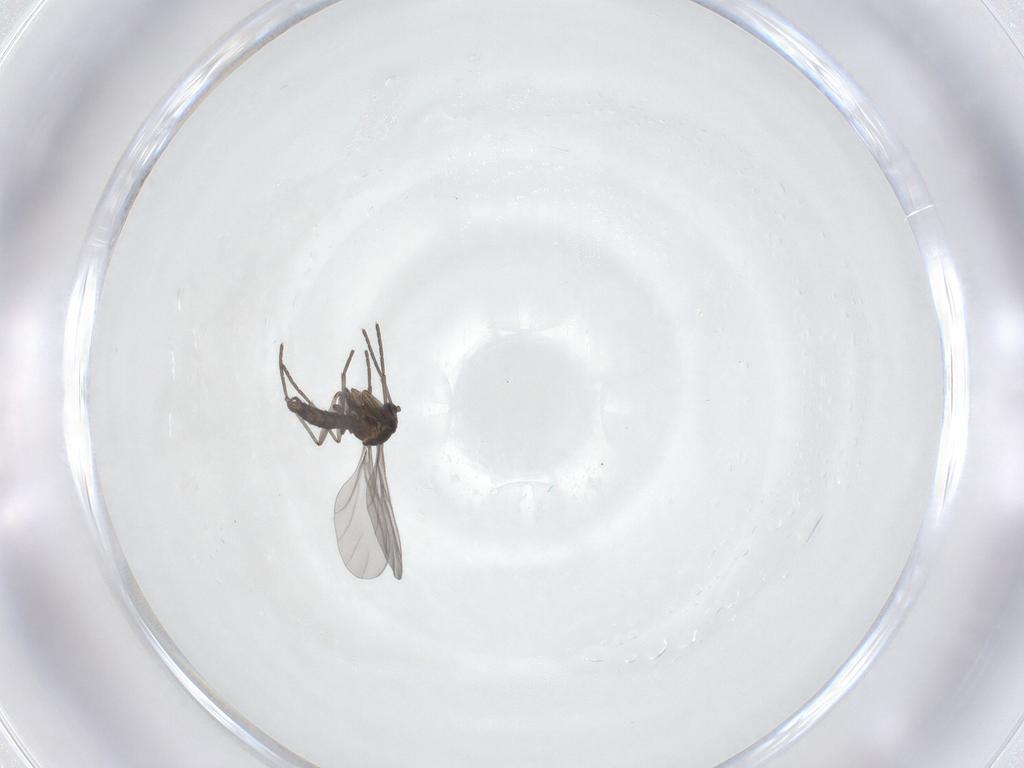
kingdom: Animalia
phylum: Arthropoda
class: Insecta
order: Diptera
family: Sciaridae
